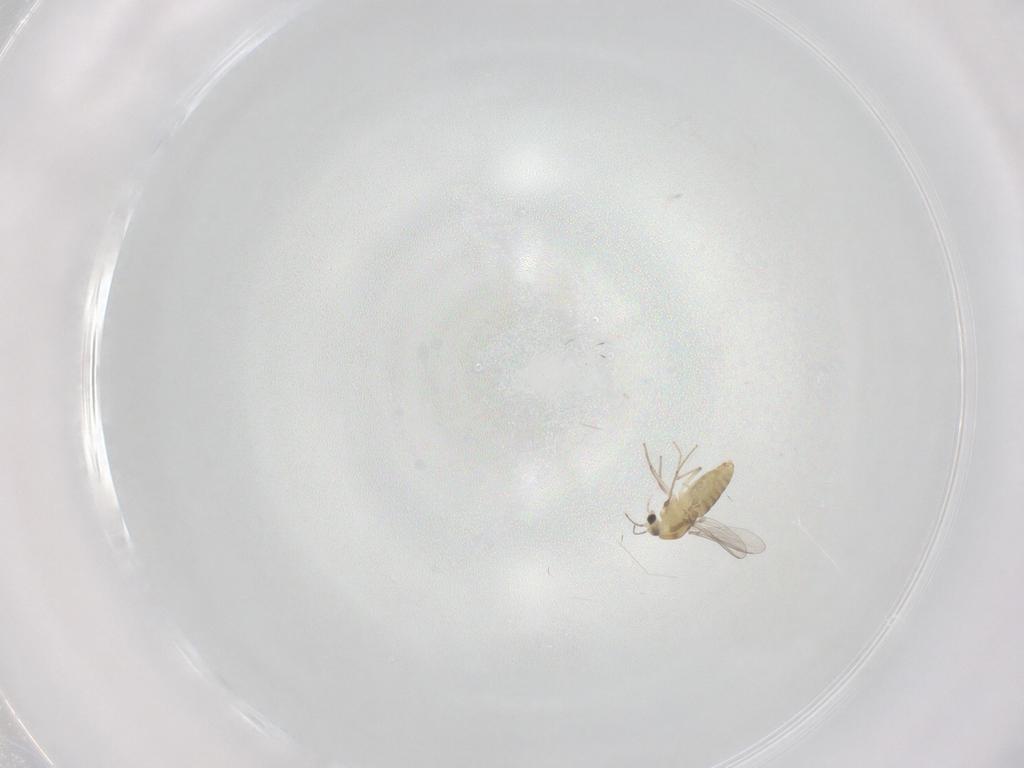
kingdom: Animalia
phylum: Arthropoda
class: Insecta
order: Diptera
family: Chironomidae
